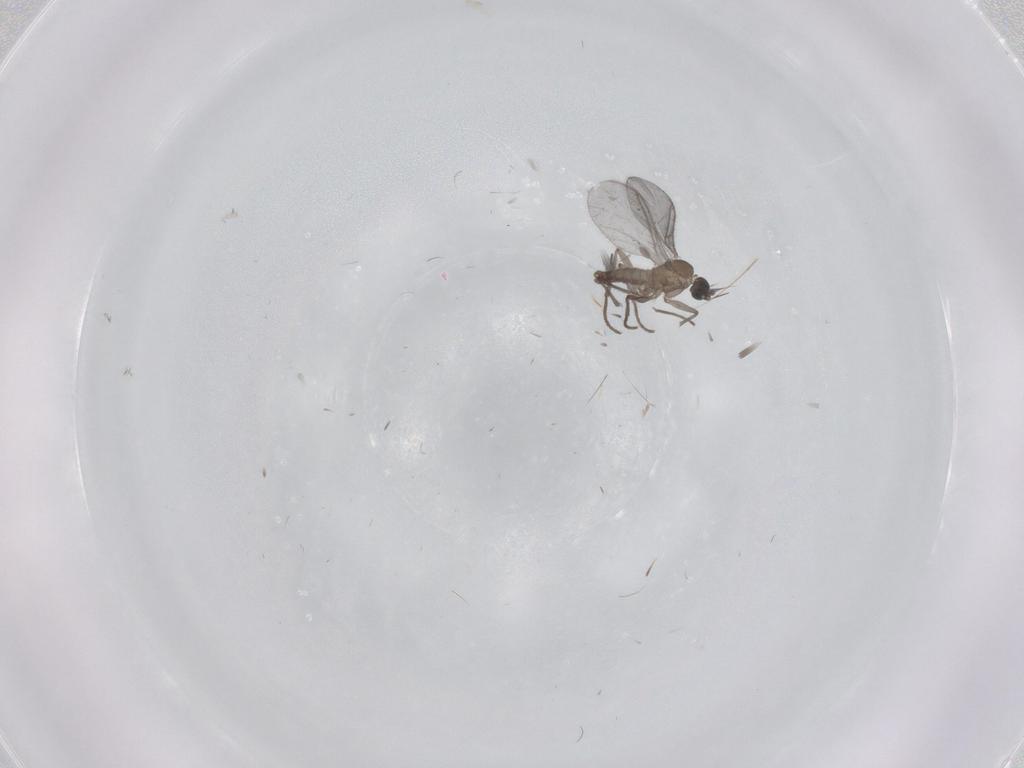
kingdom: Animalia
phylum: Arthropoda
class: Insecta
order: Diptera
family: Sciaridae
